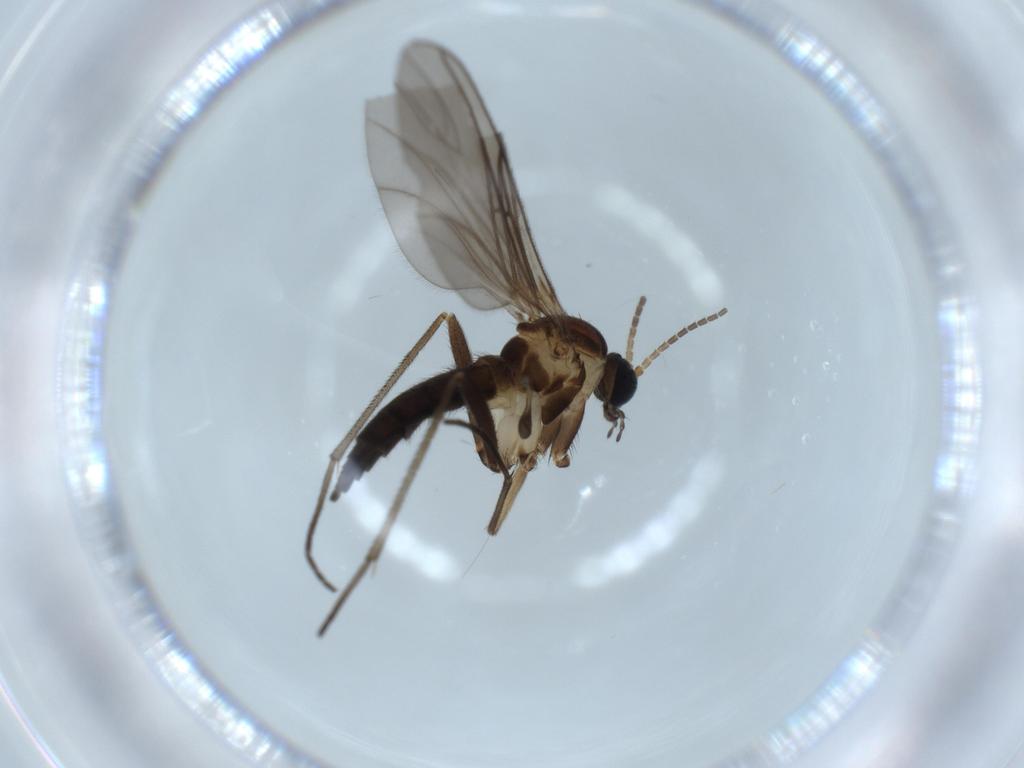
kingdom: Animalia
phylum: Arthropoda
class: Insecta
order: Diptera
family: Sciaridae
